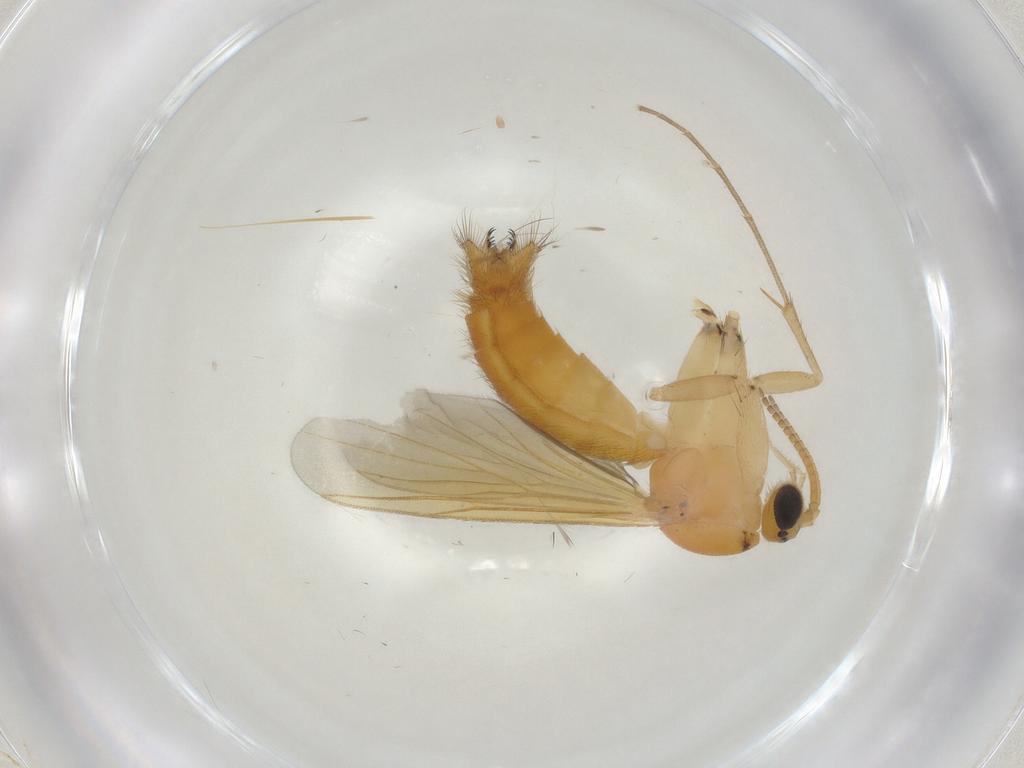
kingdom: Animalia
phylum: Arthropoda
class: Insecta
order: Diptera
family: Mycetophilidae
